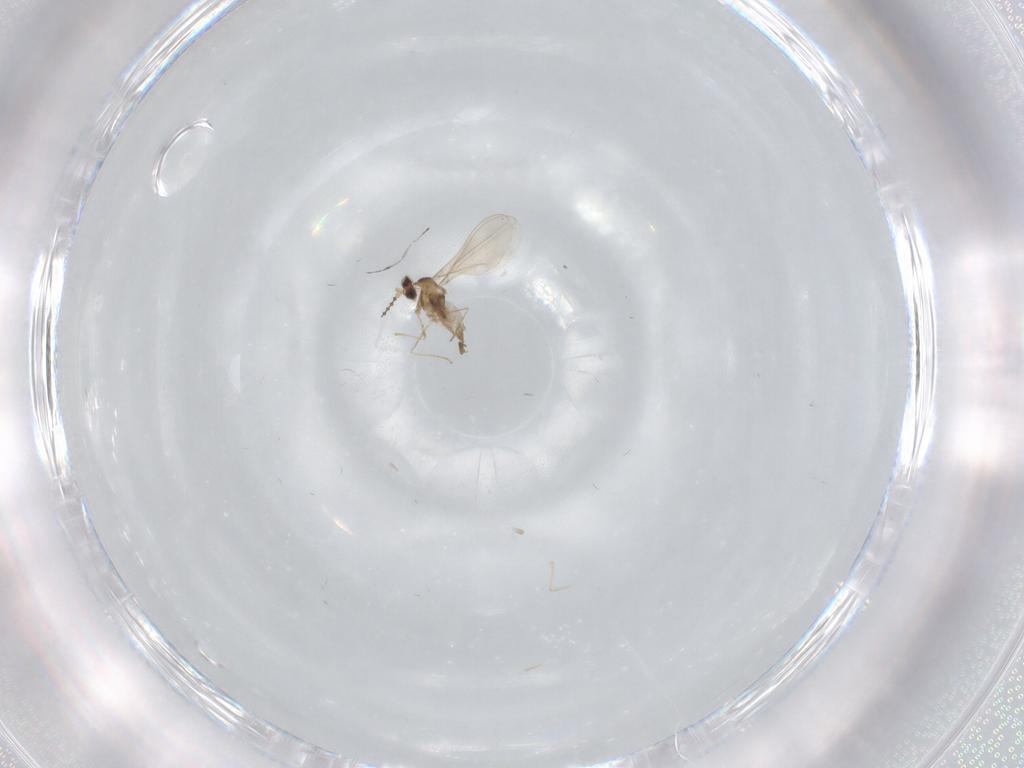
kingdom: Animalia
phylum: Arthropoda
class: Insecta
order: Diptera
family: Cecidomyiidae
